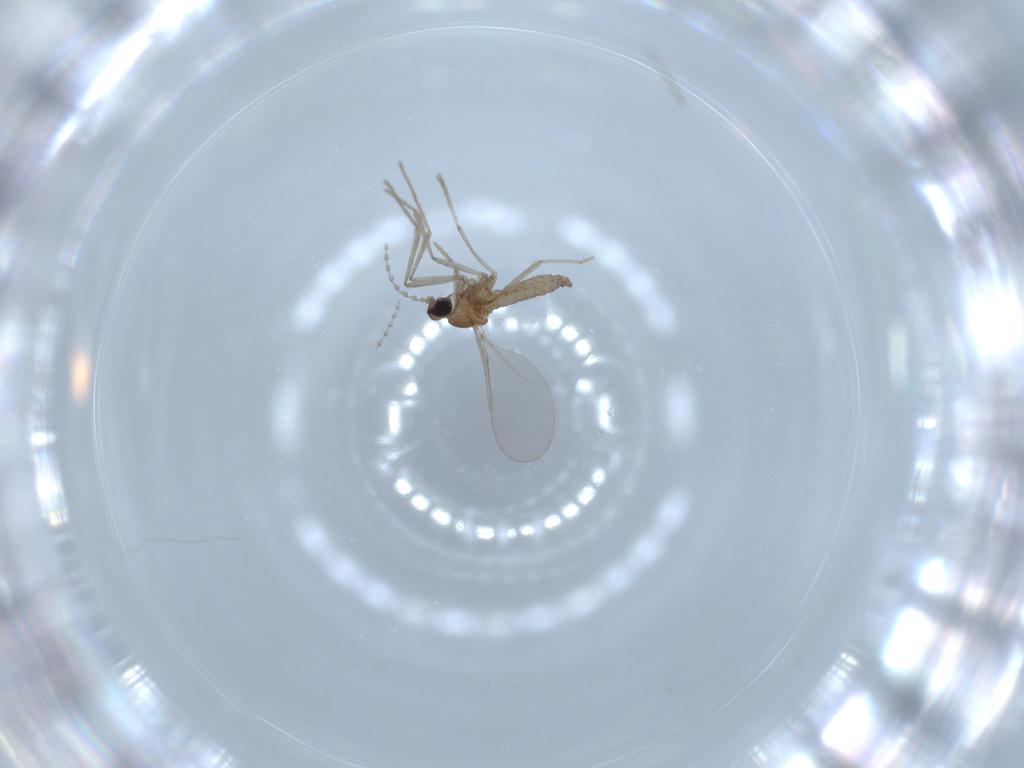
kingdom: Animalia
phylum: Arthropoda
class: Insecta
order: Diptera
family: Cecidomyiidae
